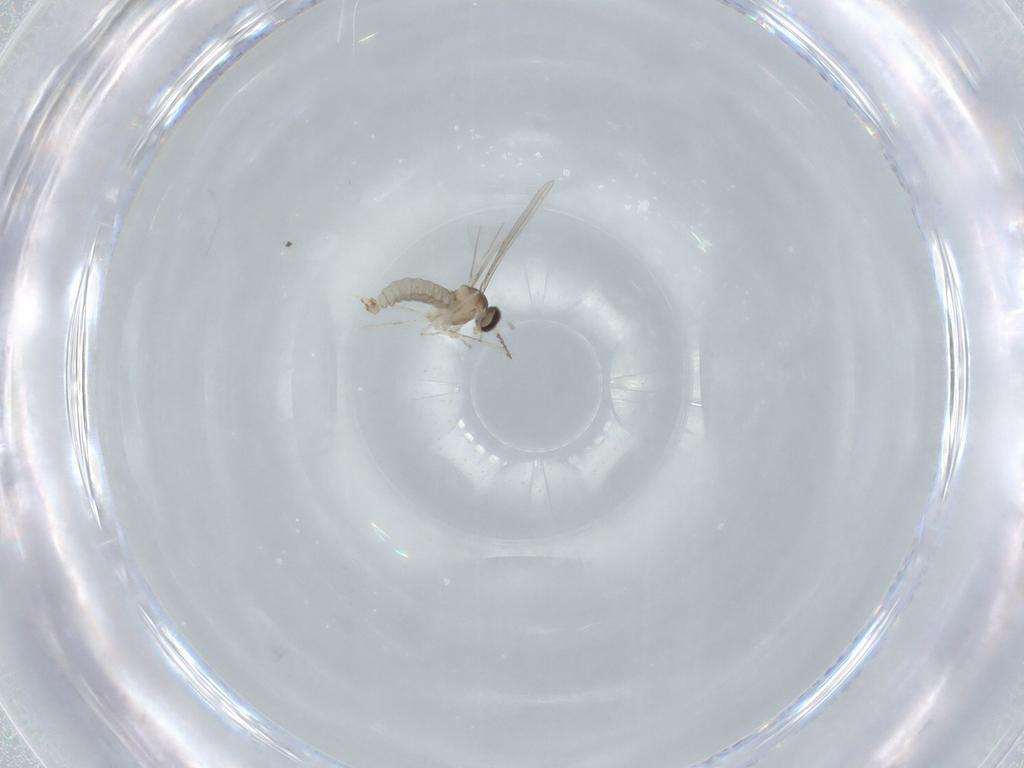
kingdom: Animalia
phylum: Arthropoda
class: Insecta
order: Diptera
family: Cecidomyiidae
